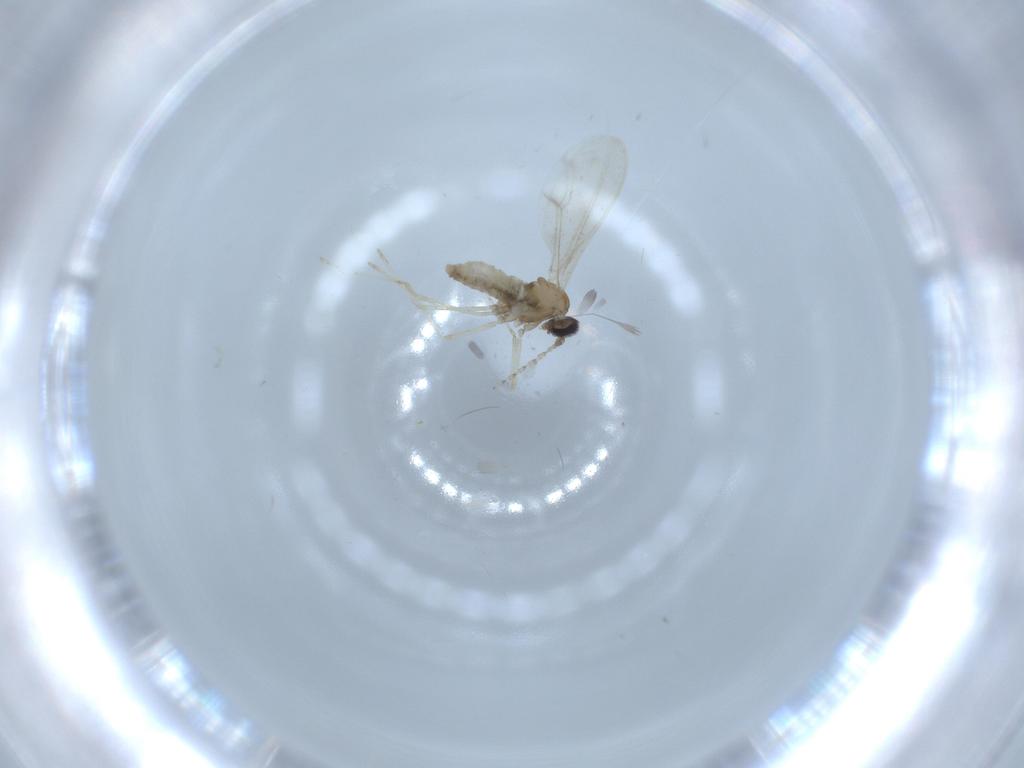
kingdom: Animalia
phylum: Arthropoda
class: Insecta
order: Diptera
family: Cecidomyiidae
